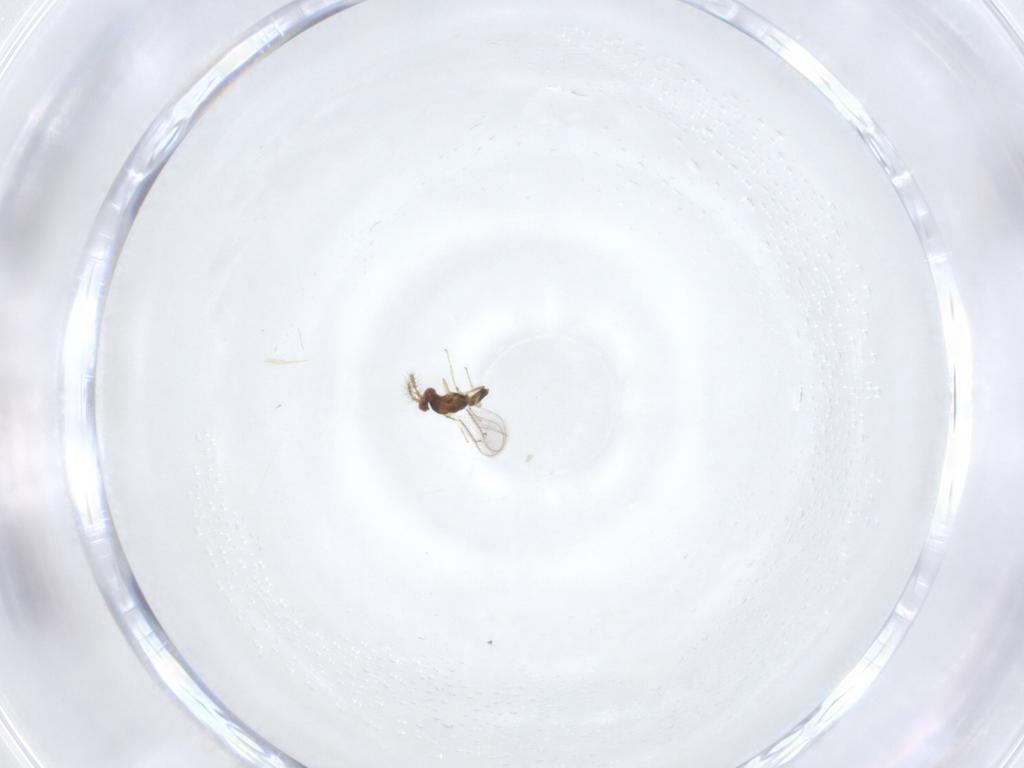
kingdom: Animalia
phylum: Arthropoda
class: Insecta
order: Hymenoptera
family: Eulophidae
